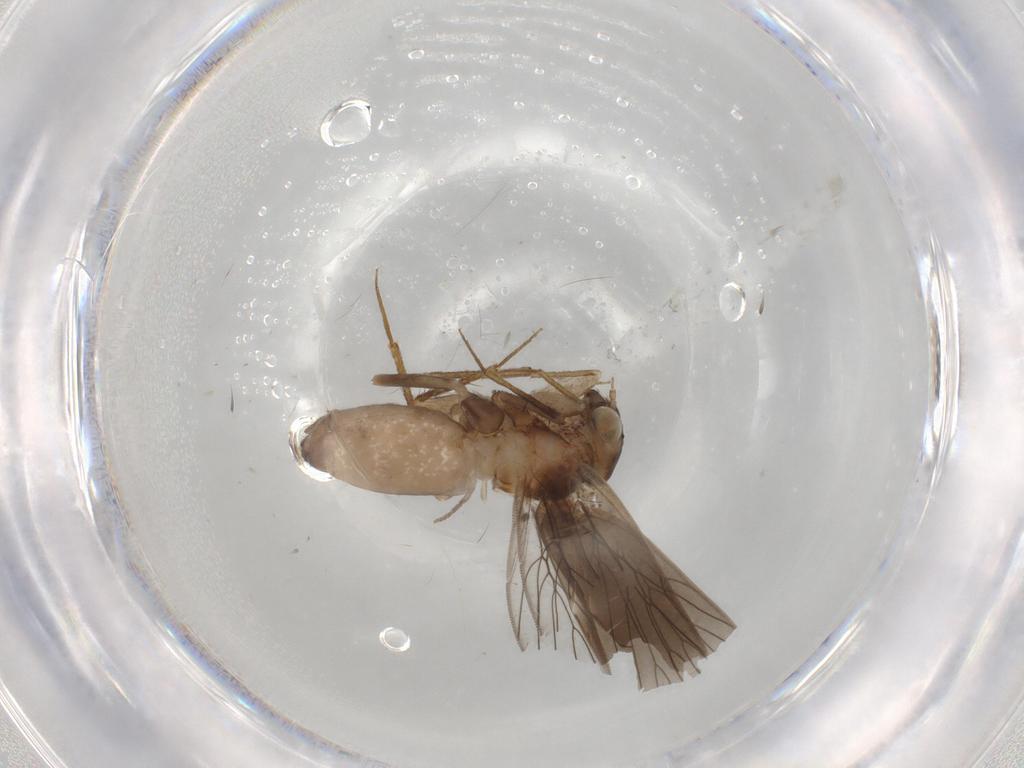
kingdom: Animalia
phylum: Arthropoda
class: Insecta
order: Psocodea
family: Lepidopsocidae
